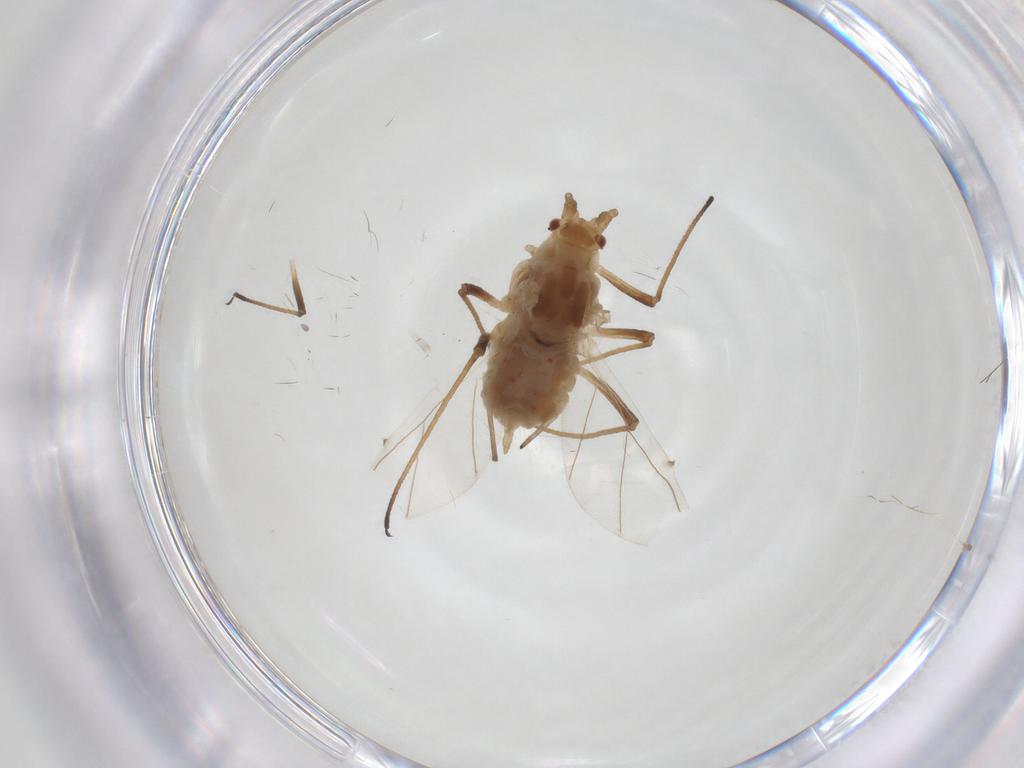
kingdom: Animalia
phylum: Arthropoda
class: Insecta
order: Hemiptera
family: Aphididae
